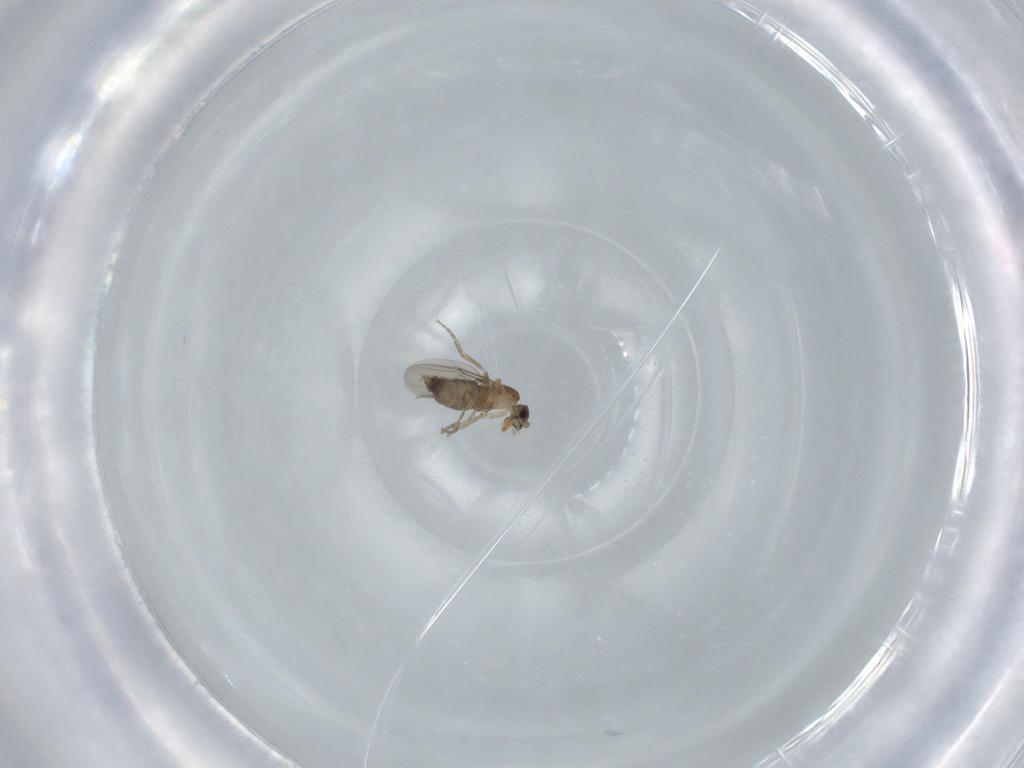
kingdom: Animalia
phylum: Arthropoda
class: Insecta
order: Diptera
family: Phoridae
